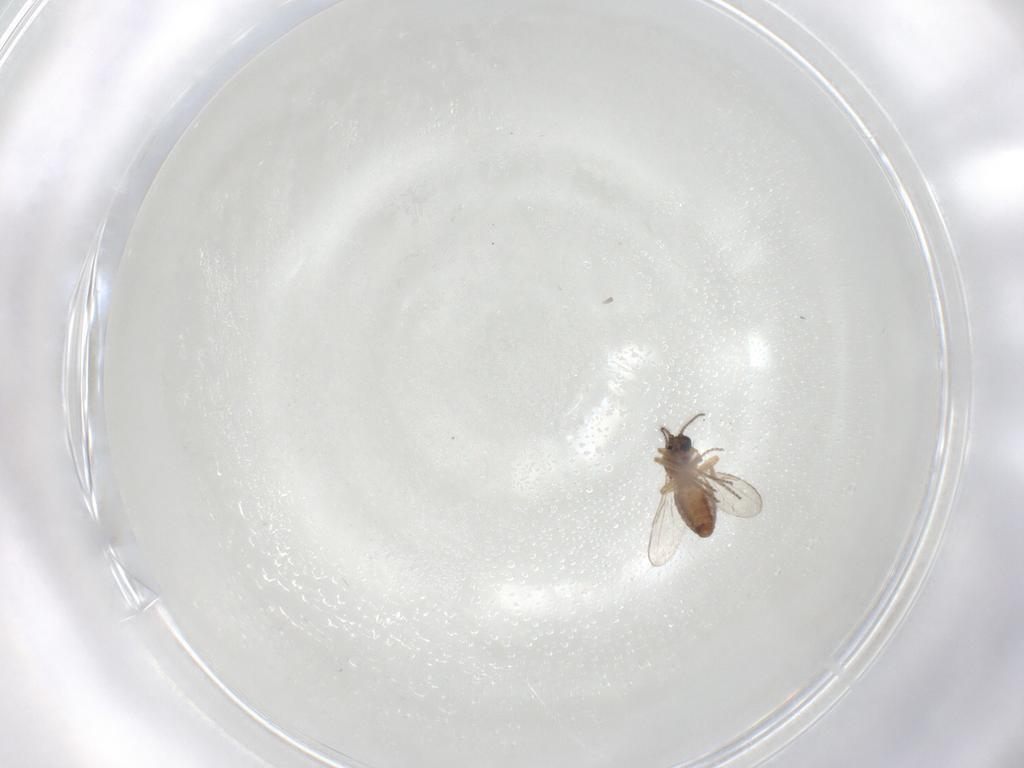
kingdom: Animalia
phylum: Arthropoda
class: Insecta
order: Diptera
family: Ceratopogonidae
